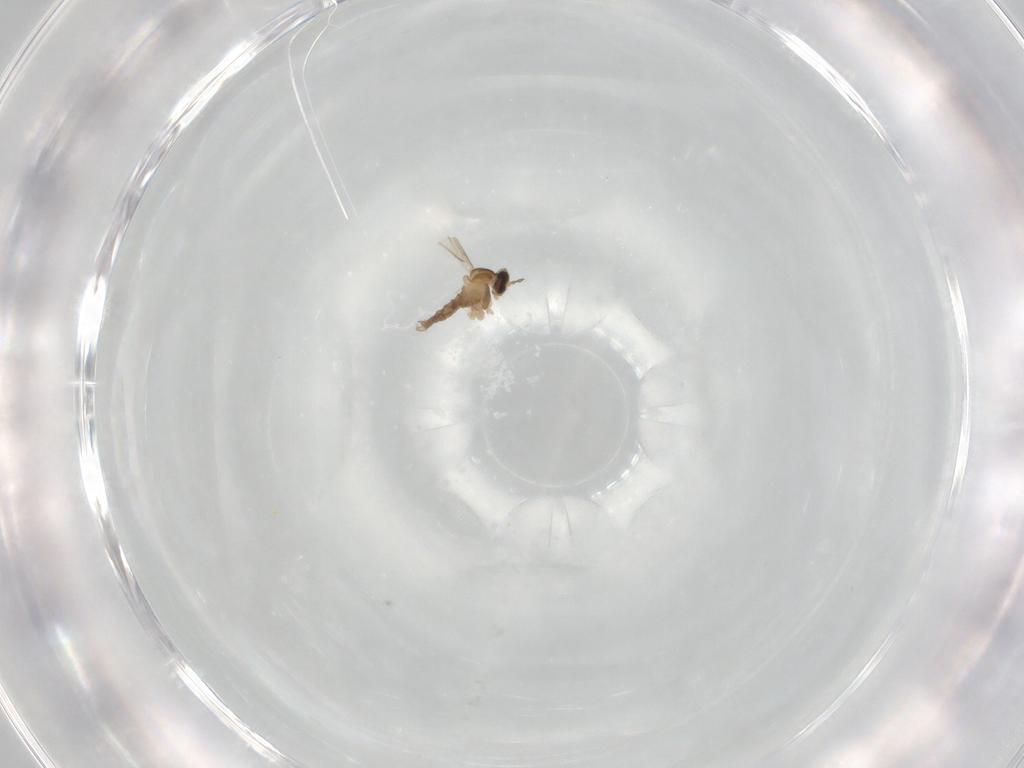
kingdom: Animalia
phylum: Arthropoda
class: Insecta
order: Diptera
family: Cecidomyiidae
